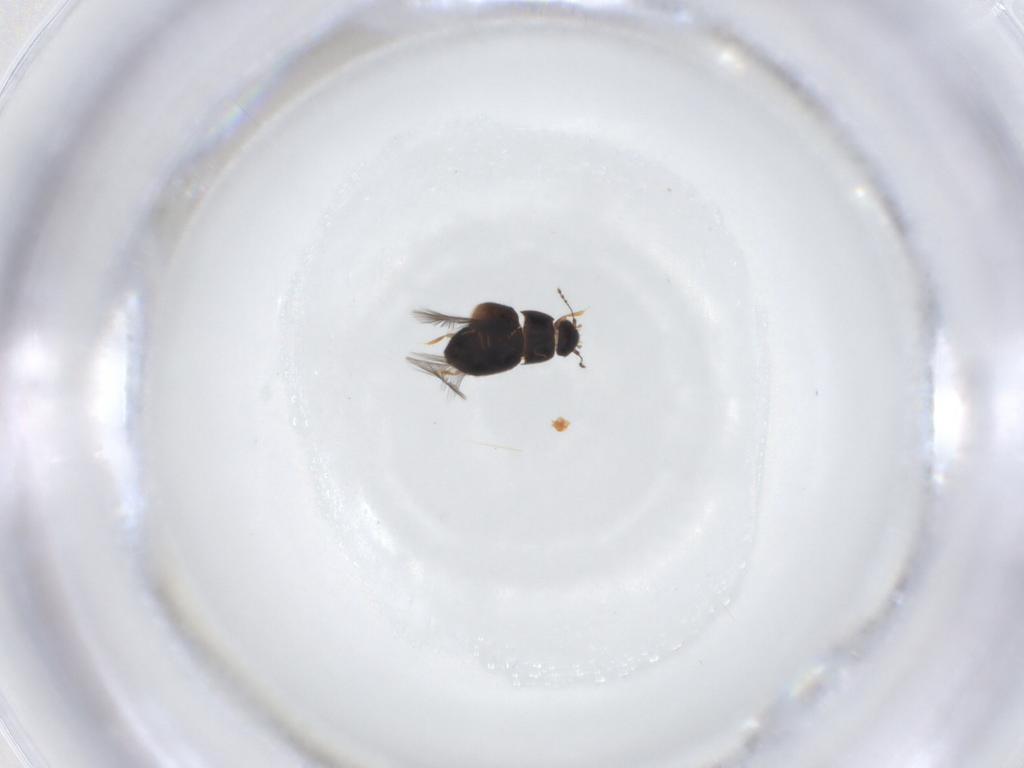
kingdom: Animalia
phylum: Arthropoda
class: Insecta
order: Coleoptera
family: Ptiliidae
